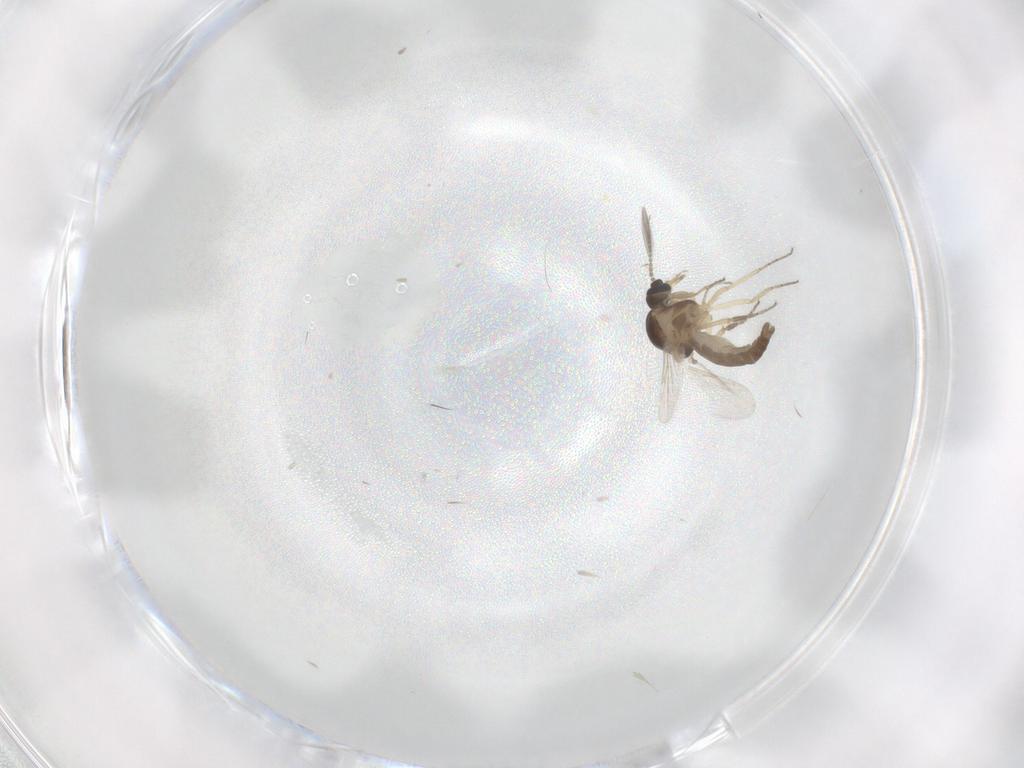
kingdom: Animalia
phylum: Arthropoda
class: Insecta
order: Diptera
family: Ceratopogonidae
